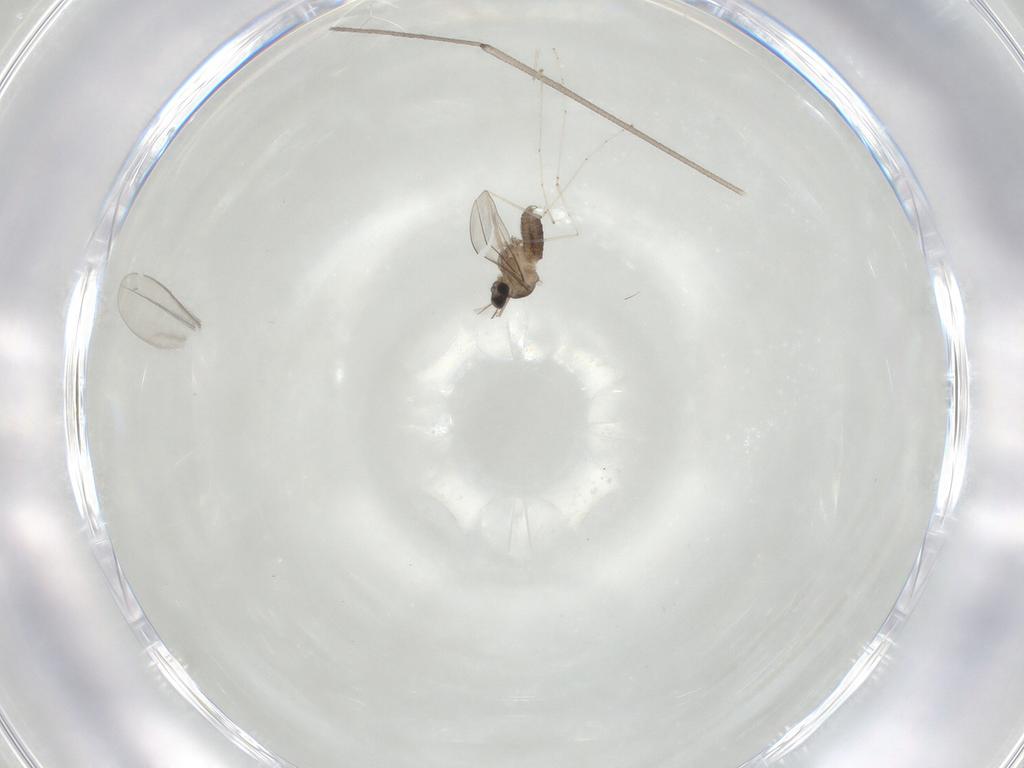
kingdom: Animalia
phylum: Arthropoda
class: Insecta
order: Diptera
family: Cecidomyiidae
